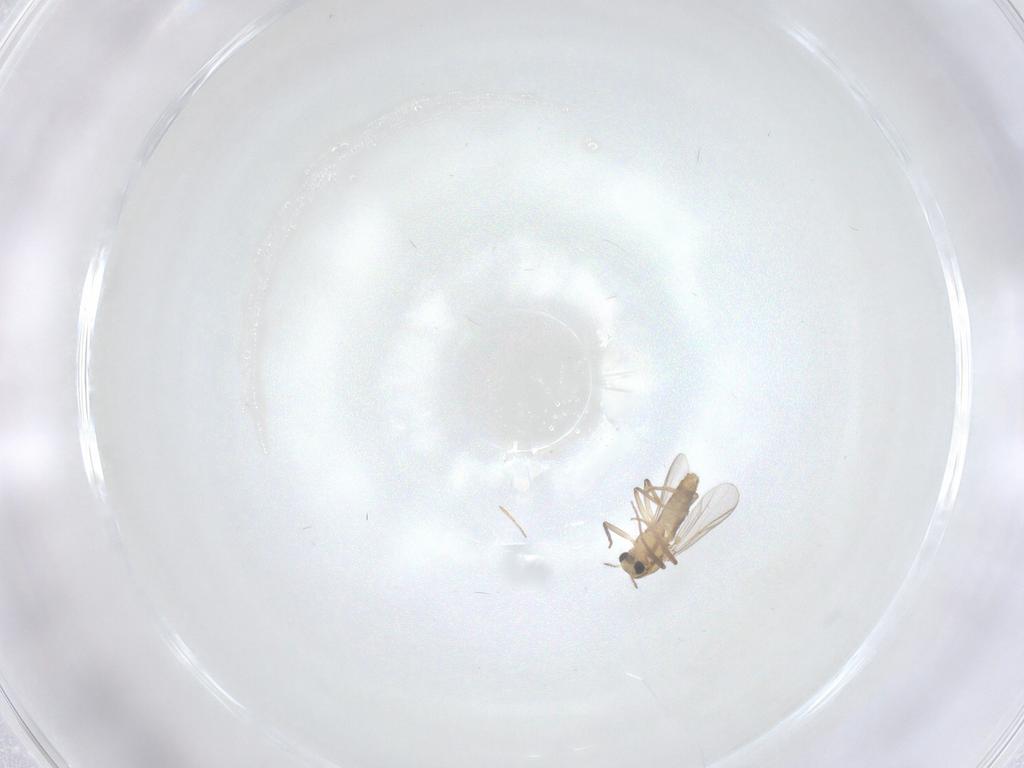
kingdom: Animalia
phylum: Arthropoda
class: Insecta
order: Diptera
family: Chironomidae
